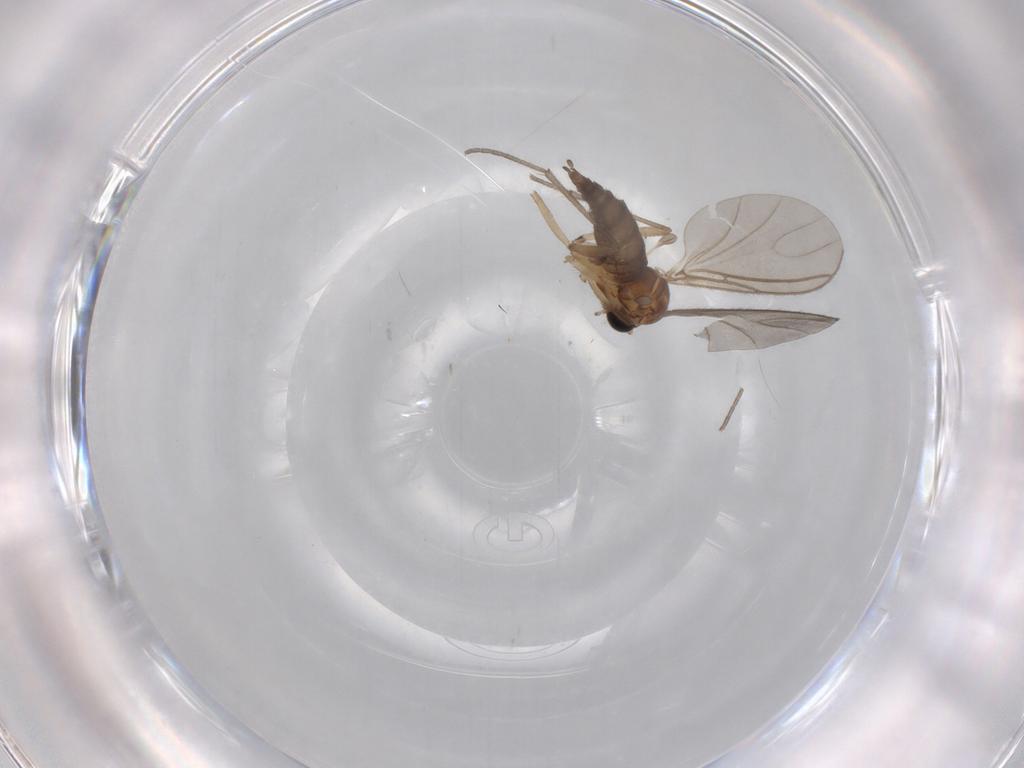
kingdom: Animalia
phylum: Arthropoda
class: Insecta
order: Diptera
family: Sciaridae
